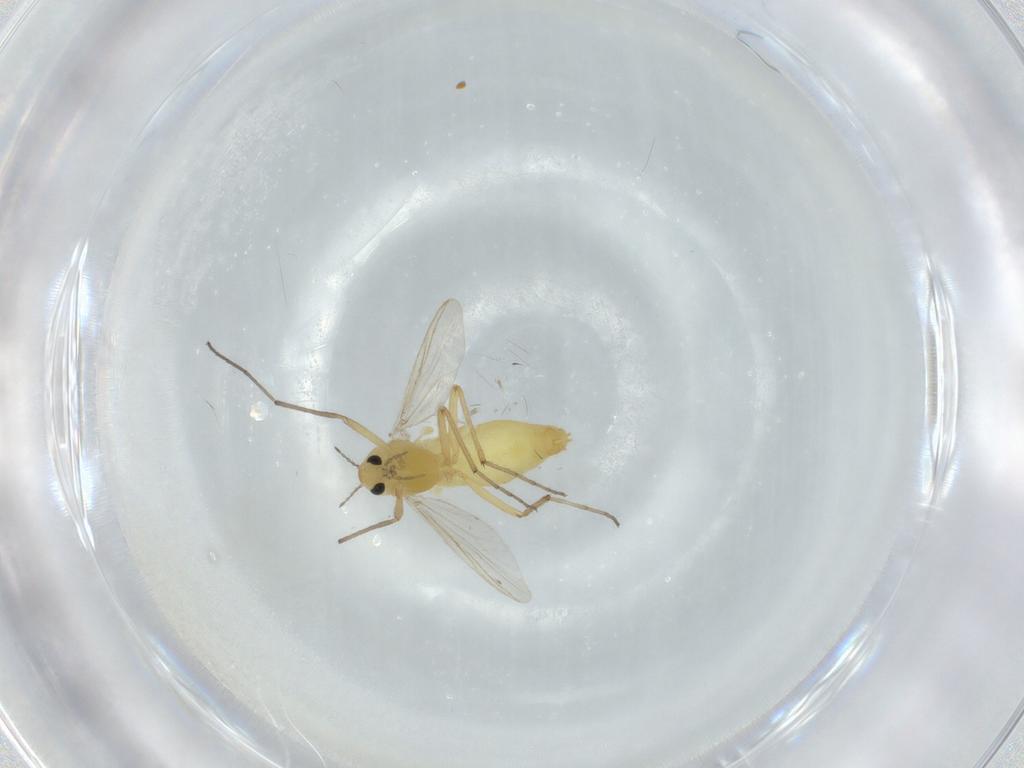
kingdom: Animalia
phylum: Arthropoda
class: Insecta
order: Diptera
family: Chironomidae
